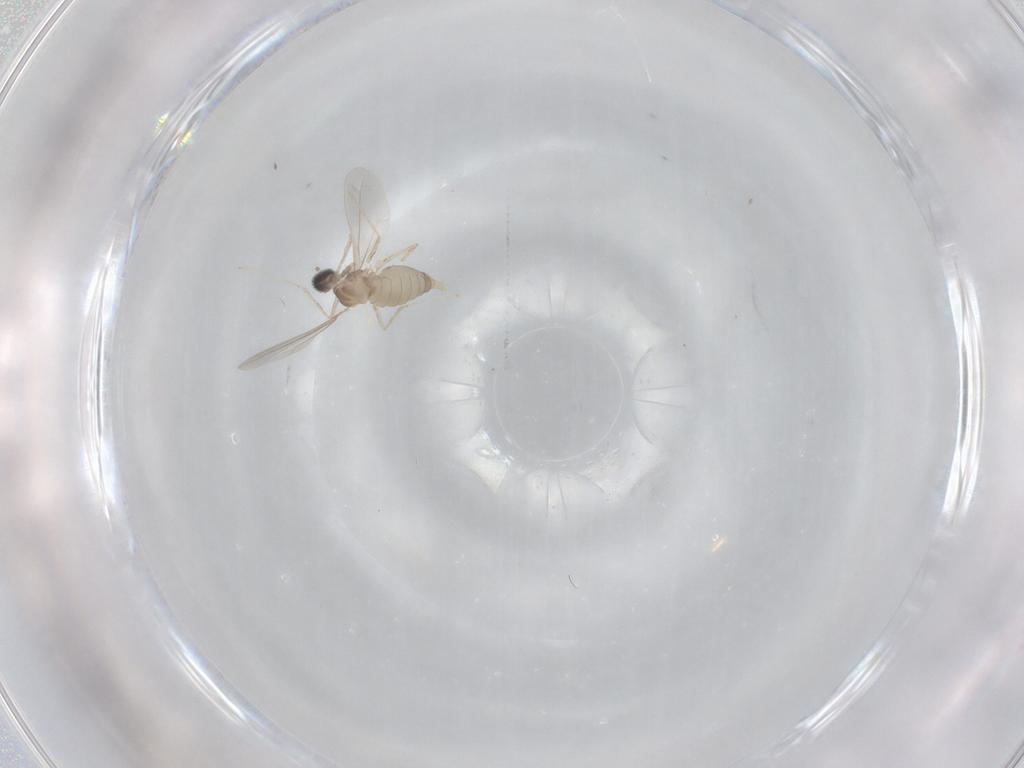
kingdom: Animalia
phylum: Arthropoda
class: Insecta
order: Diptera
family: Cecidomyiidae
